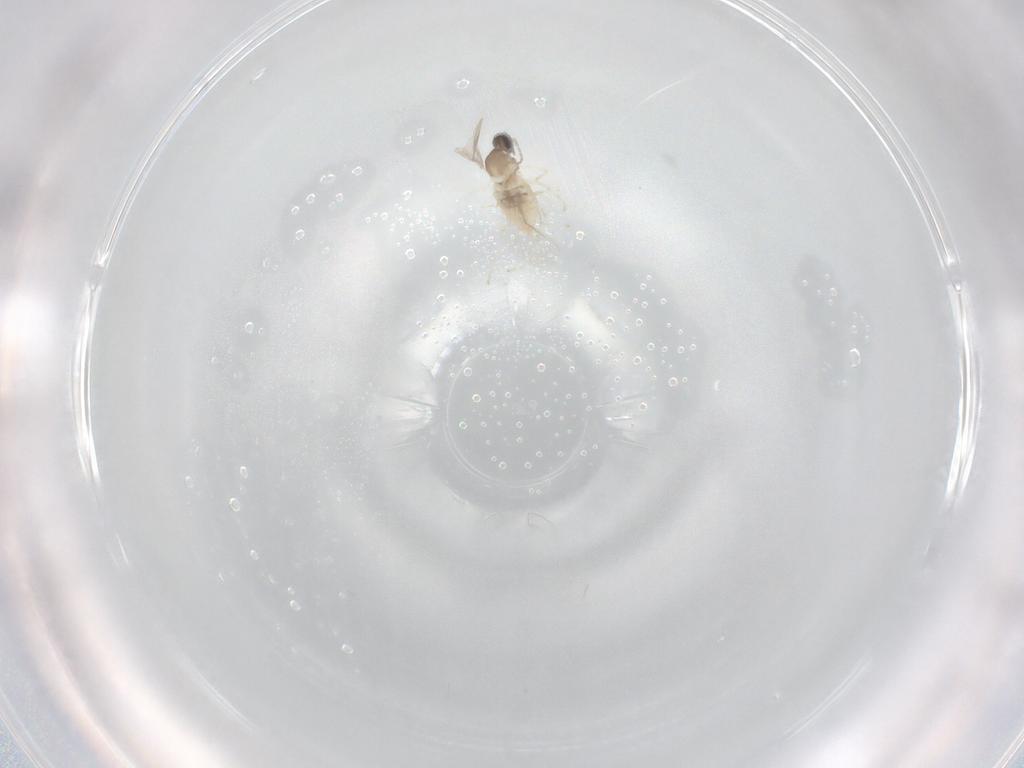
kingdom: Animalia
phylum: Arthropoda
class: Insecta
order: Diptera
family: Cecidomyiidae
